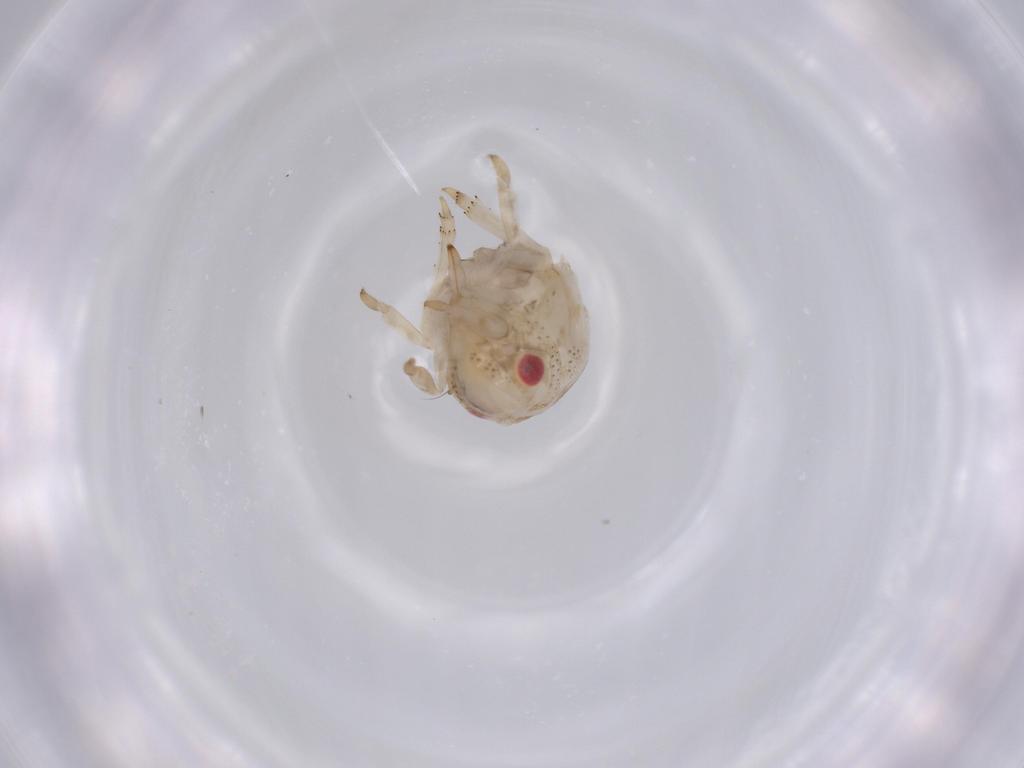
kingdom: Animalia
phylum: Arthropoda
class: Insecta
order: Hemiptera
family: Acanaloniidae
